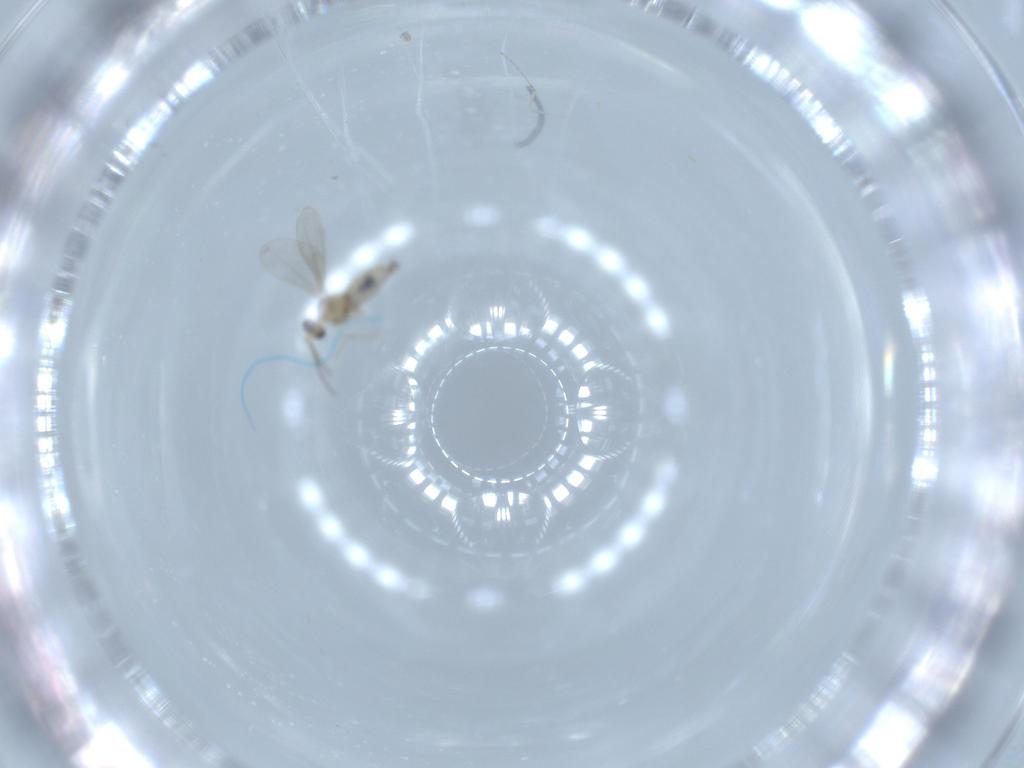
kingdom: Animalia
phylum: Arthropoda
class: Insecta
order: Diptera
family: Cecidomyiidae
